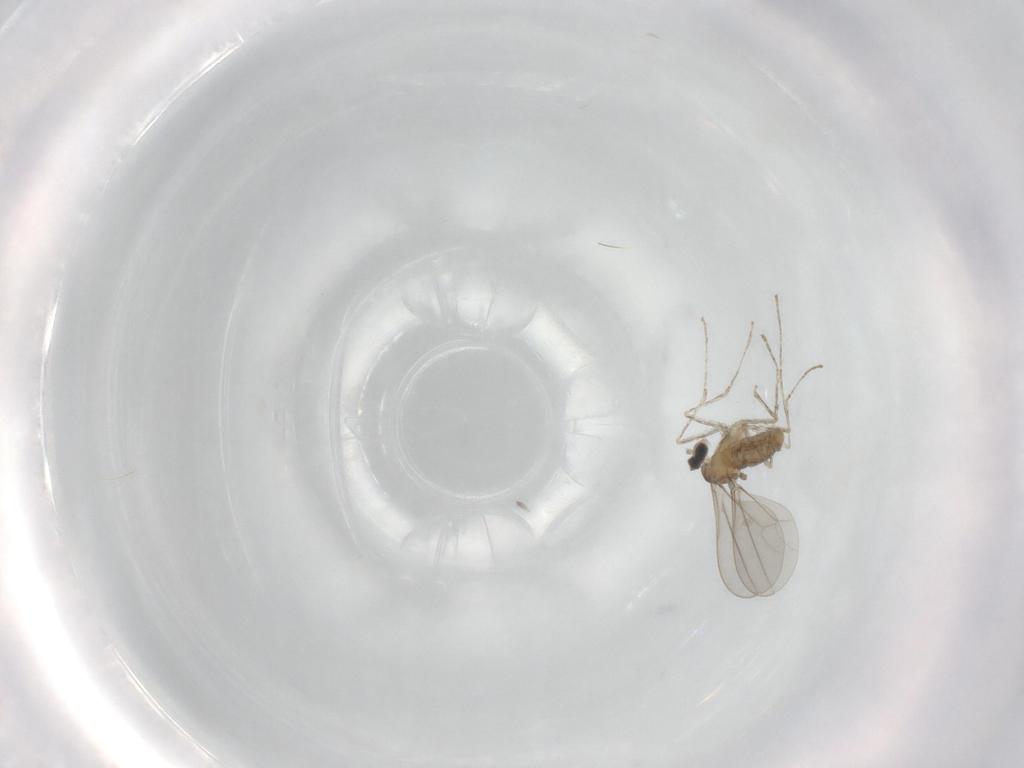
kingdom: Animalia
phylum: Arthropoda
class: Insecta
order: Diptera
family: Cecidomyiidae
